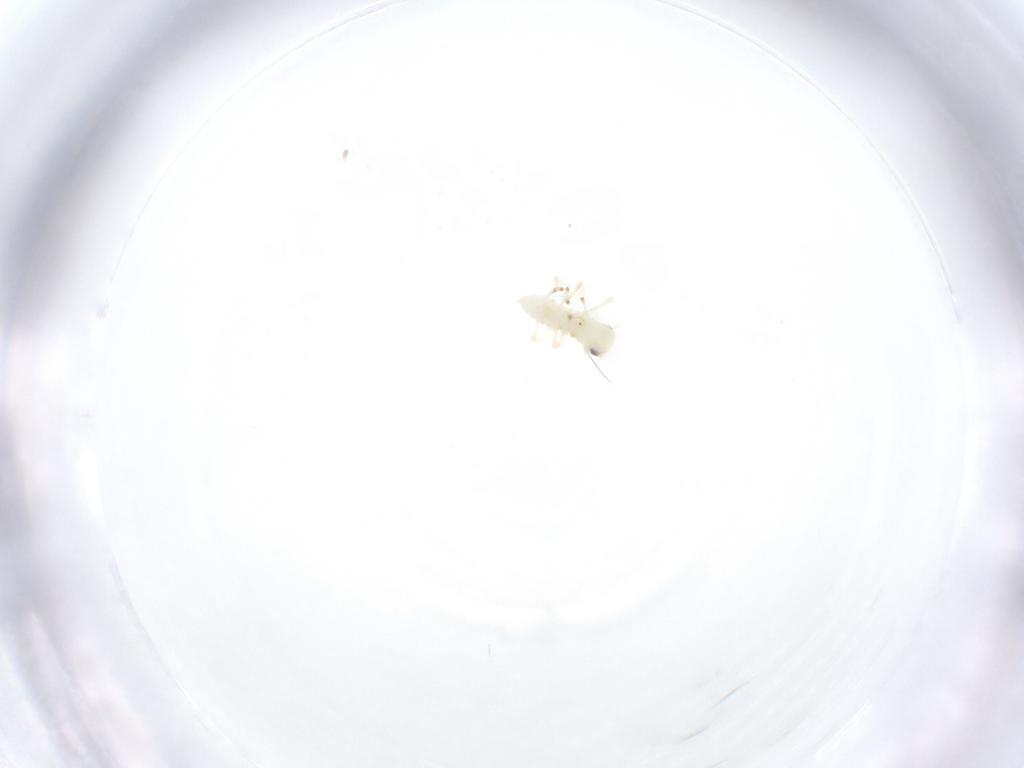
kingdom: Animalia
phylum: Arthropoda
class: Insecta
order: Hemiptera
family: Cicadellidae
